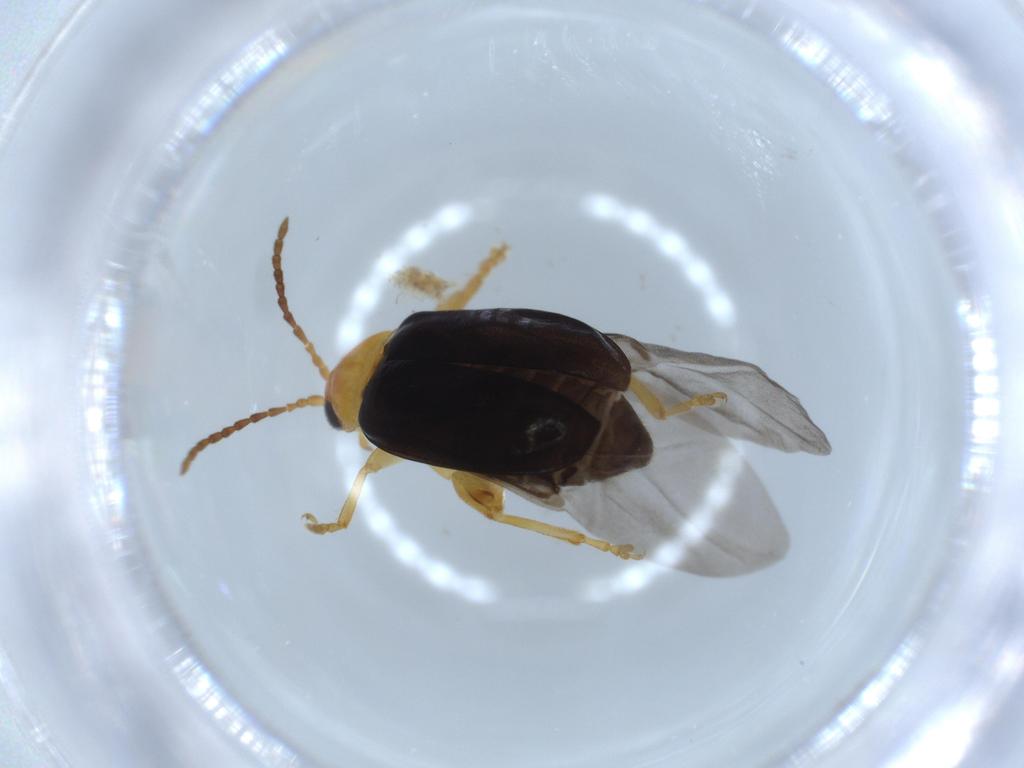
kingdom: Animalia
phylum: Arthropoda
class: Insecta
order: Coleoptera
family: Chrysomelidae
